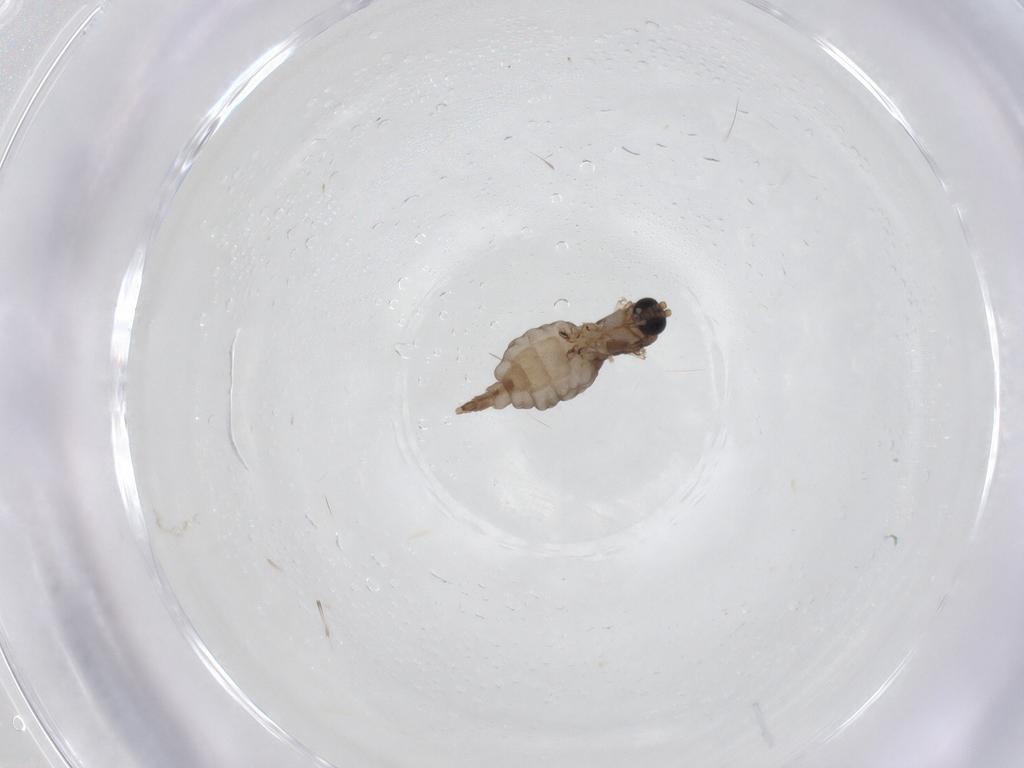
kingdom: Animalia
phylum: Arthropoda
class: Insecta
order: Diptera
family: Sciaridae
